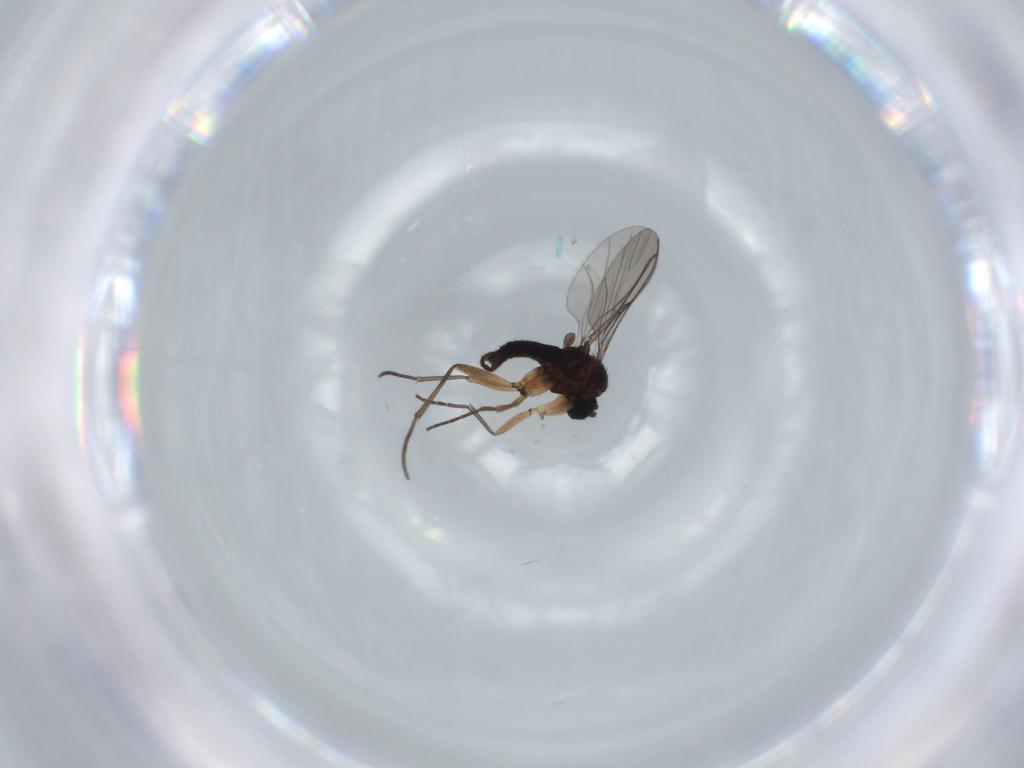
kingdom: Animalia
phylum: Arthropoda
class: Insecta
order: Diptera
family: Sciaridae
